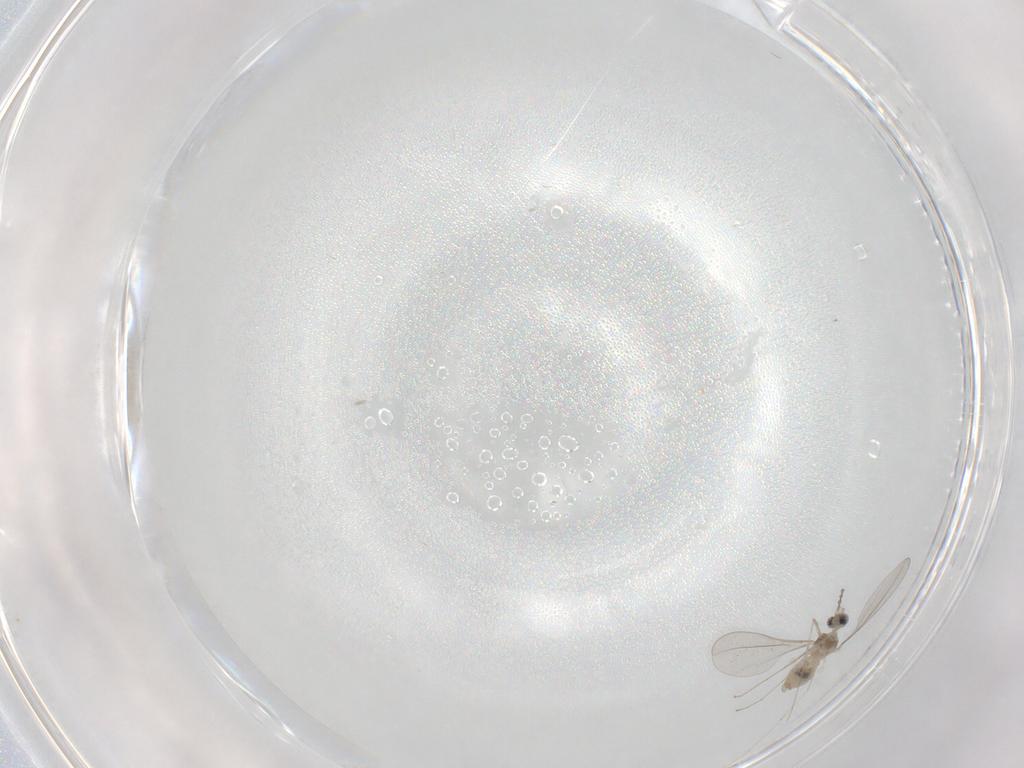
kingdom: Animalia
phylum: Arthropoda
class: Insecta
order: Diptera
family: Cecidomyiidae
